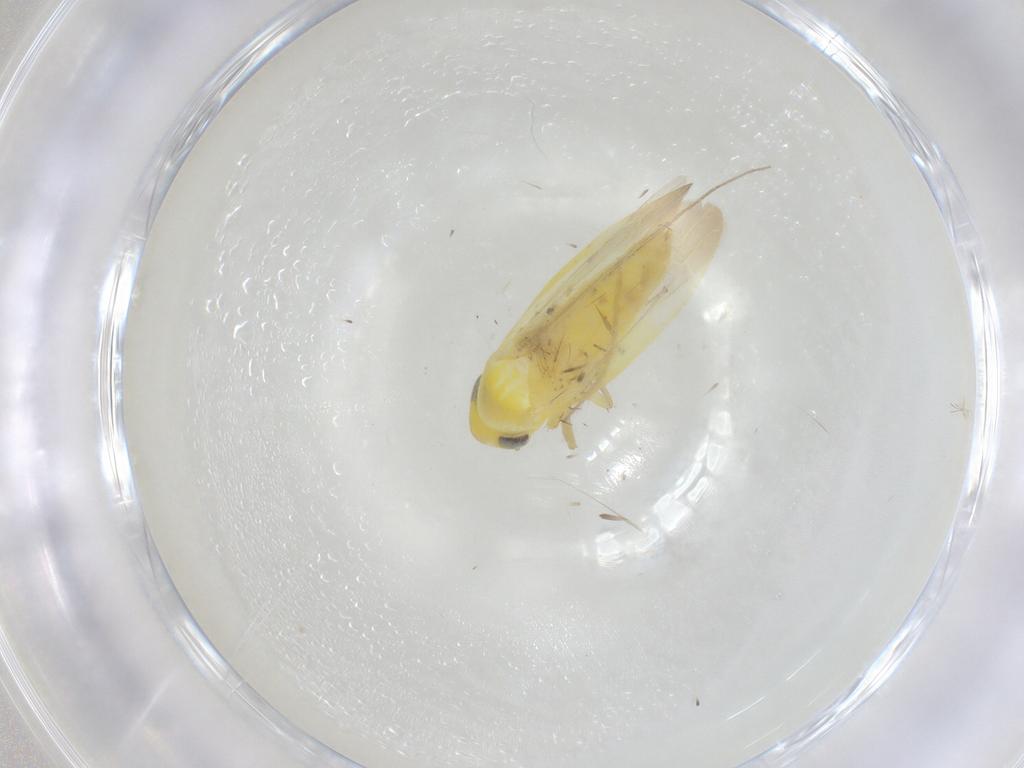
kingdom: Animalia
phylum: Arthropoda
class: Insecta
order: Hemiptera
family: Cicadellidae
